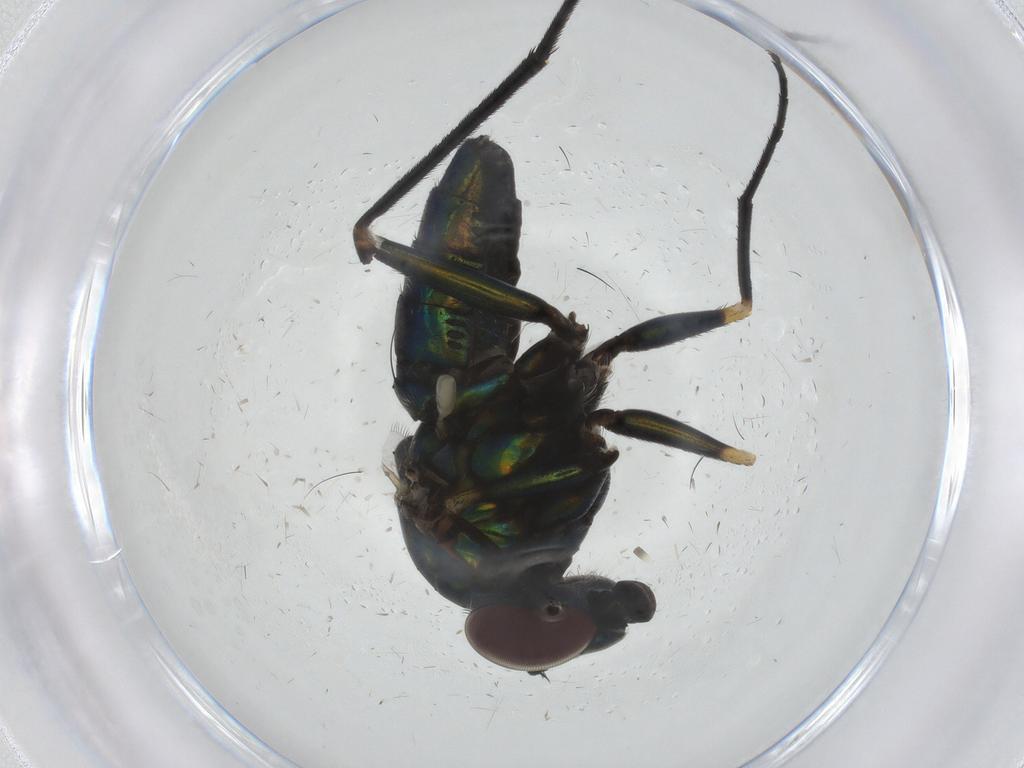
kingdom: Animalia
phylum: Arthropoda
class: Insecta
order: Diptera
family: Dolichopodidae
